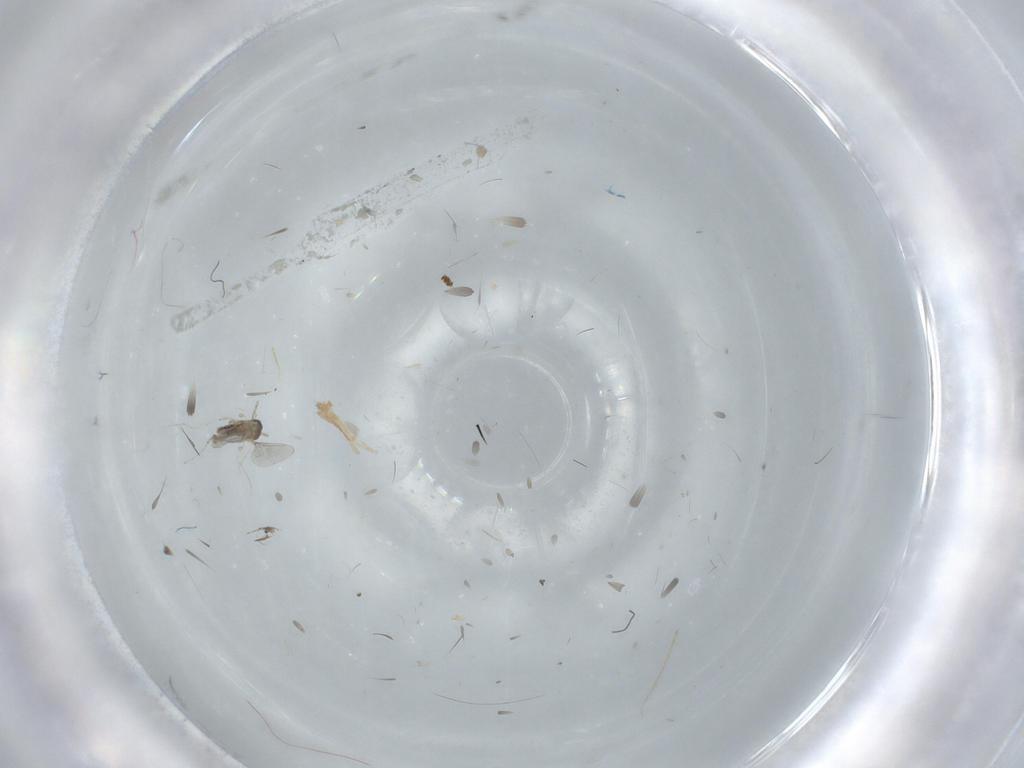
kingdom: Animalia
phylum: Arthropoda
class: Insecta
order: Diptera
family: Cecidomyiidae
